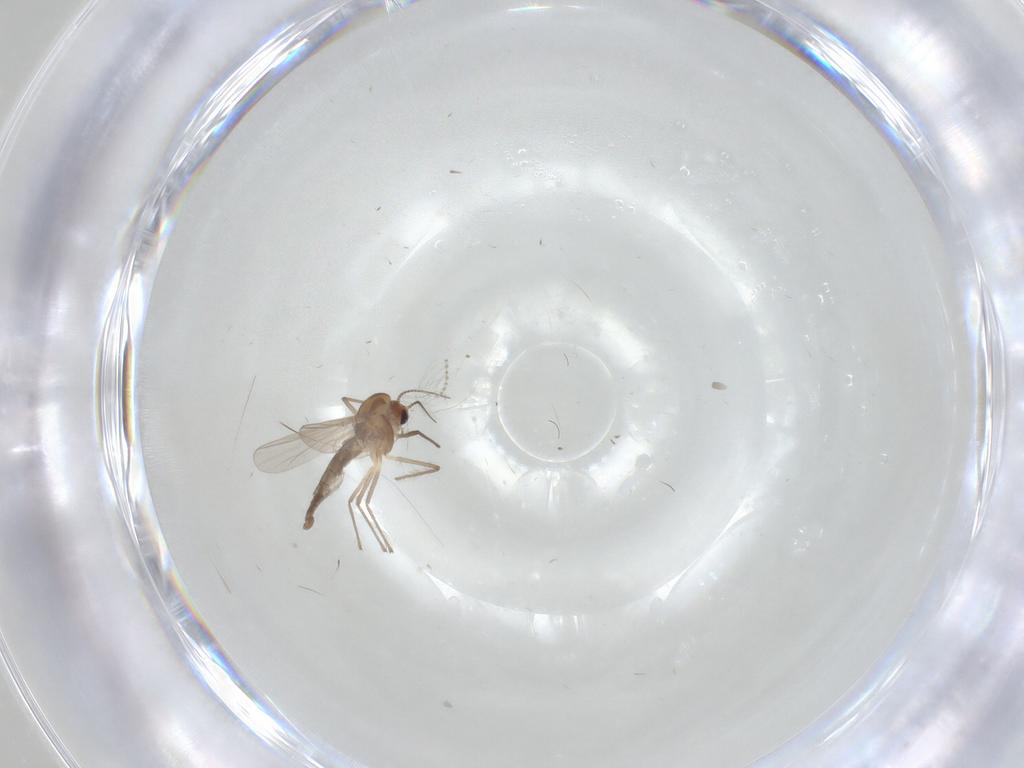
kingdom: Animalia
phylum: Arthropoda
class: Insecta
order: Diptera
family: Chironomidae
